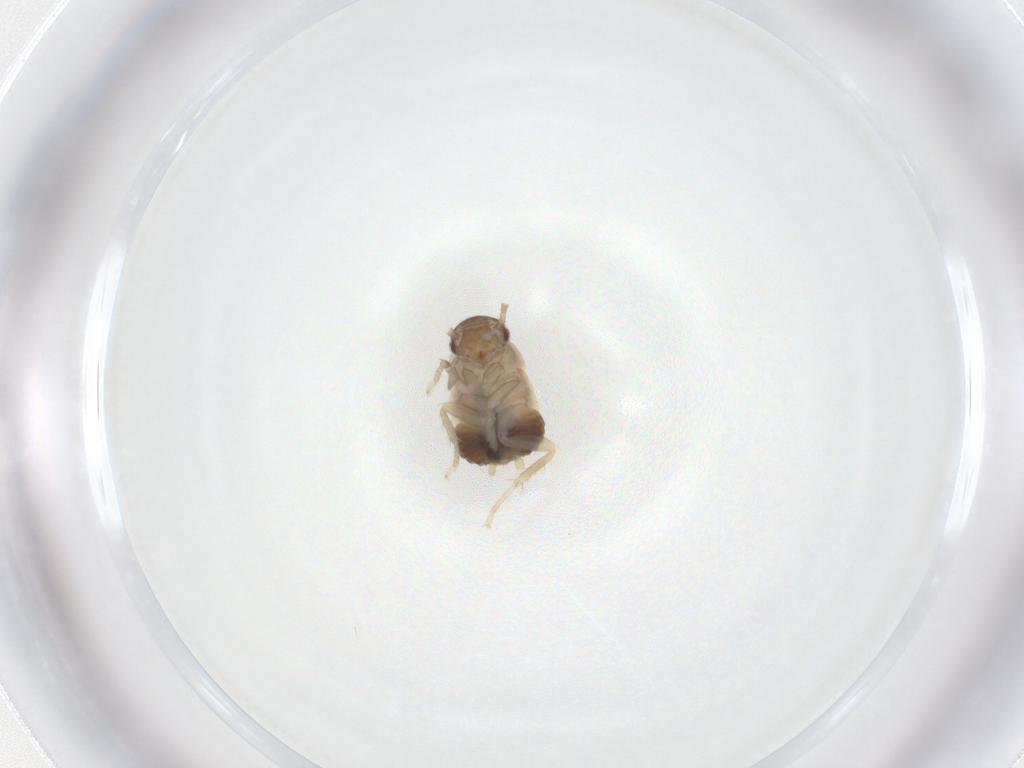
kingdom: Animalia
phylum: Arthropoda
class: Insecta
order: Blattodea
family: Ectobiidae
